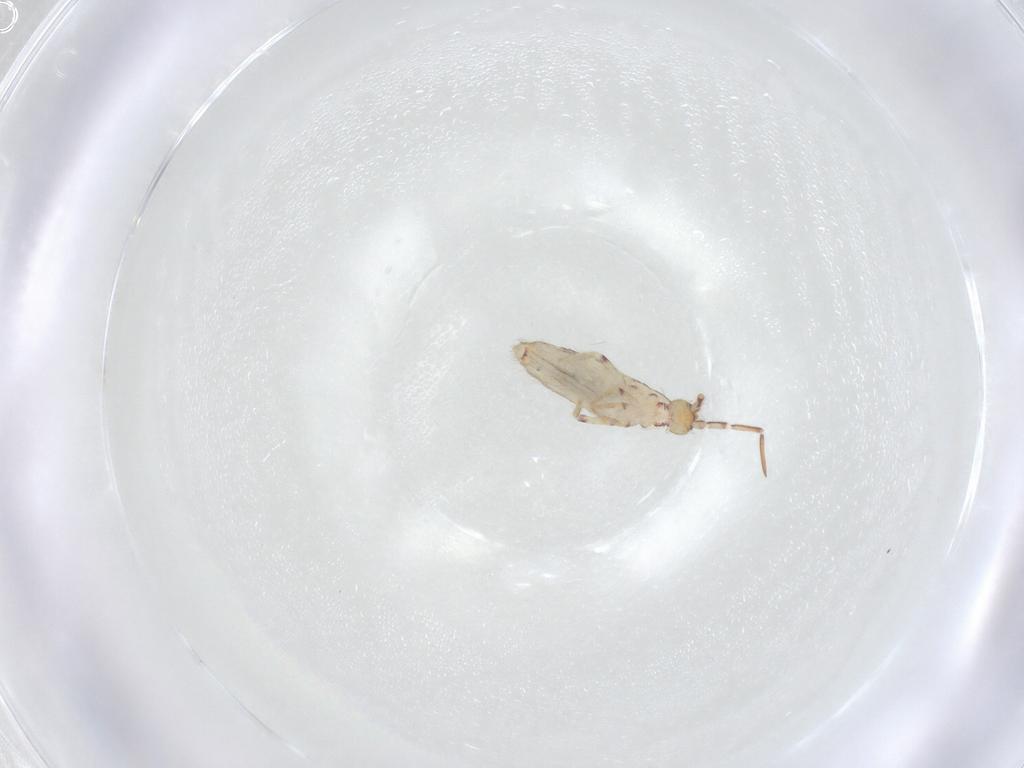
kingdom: Animalia
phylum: Arthropoda
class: Collembola
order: Entomobryomorpha
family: Entomobryidae
